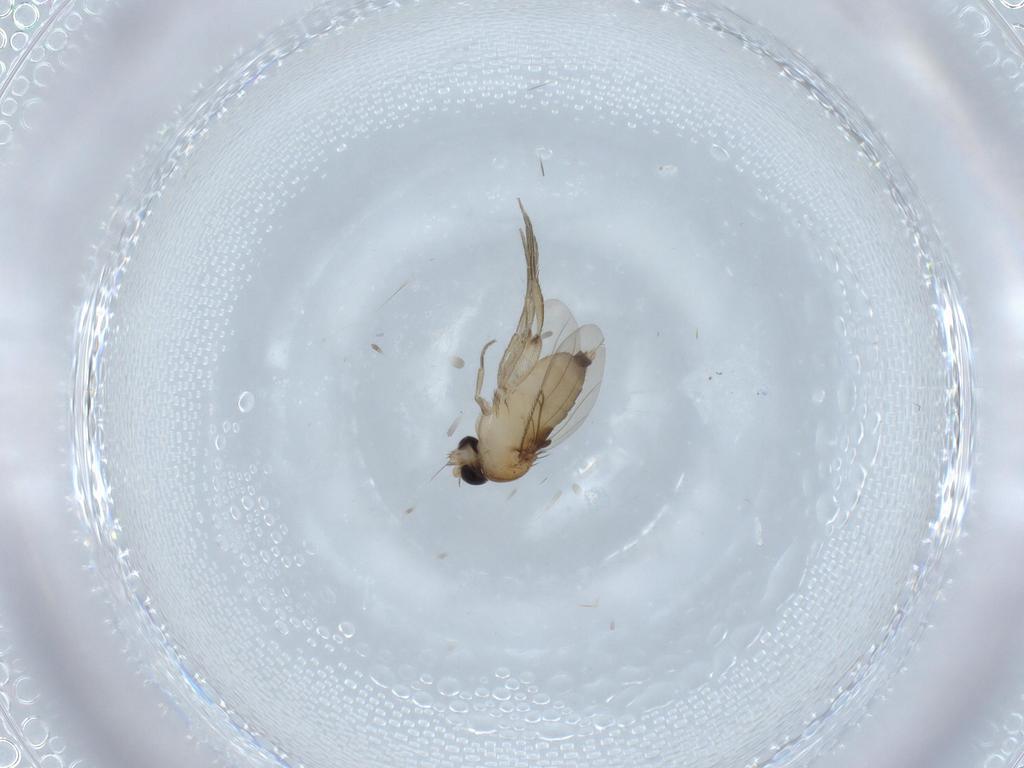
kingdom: Animalia
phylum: Arthropoda
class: Insecta
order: Diptera
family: Phoridae
